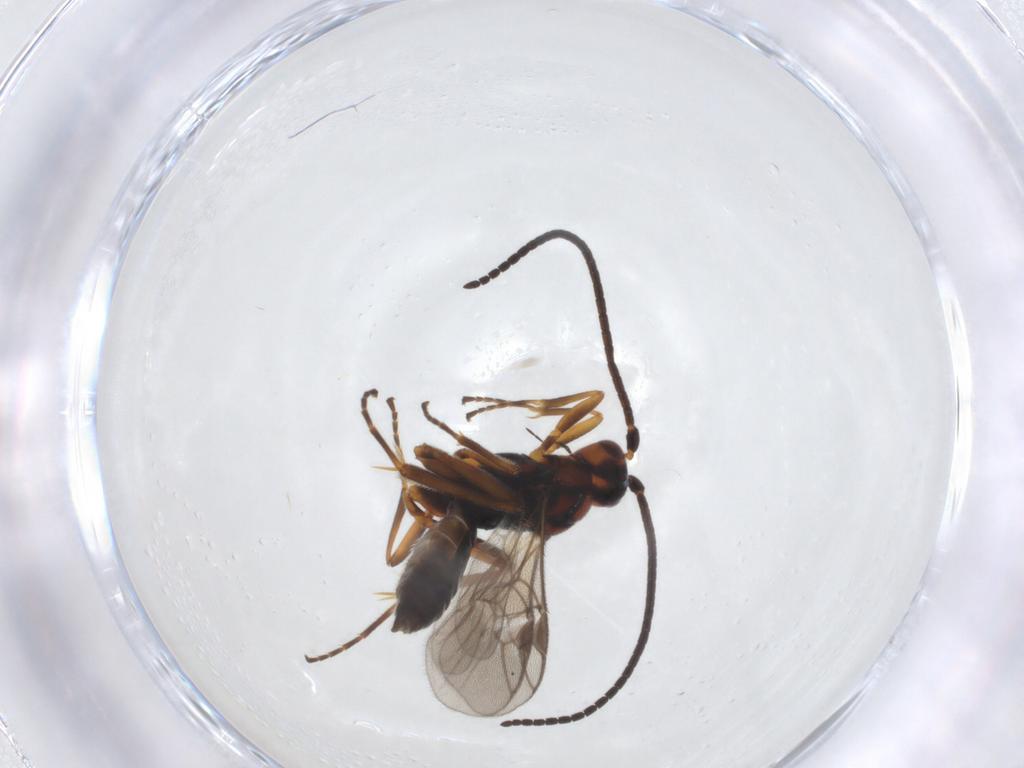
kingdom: Animalia
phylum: Arthropoda
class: Insecta
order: Hymenoptera
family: Braconidae
